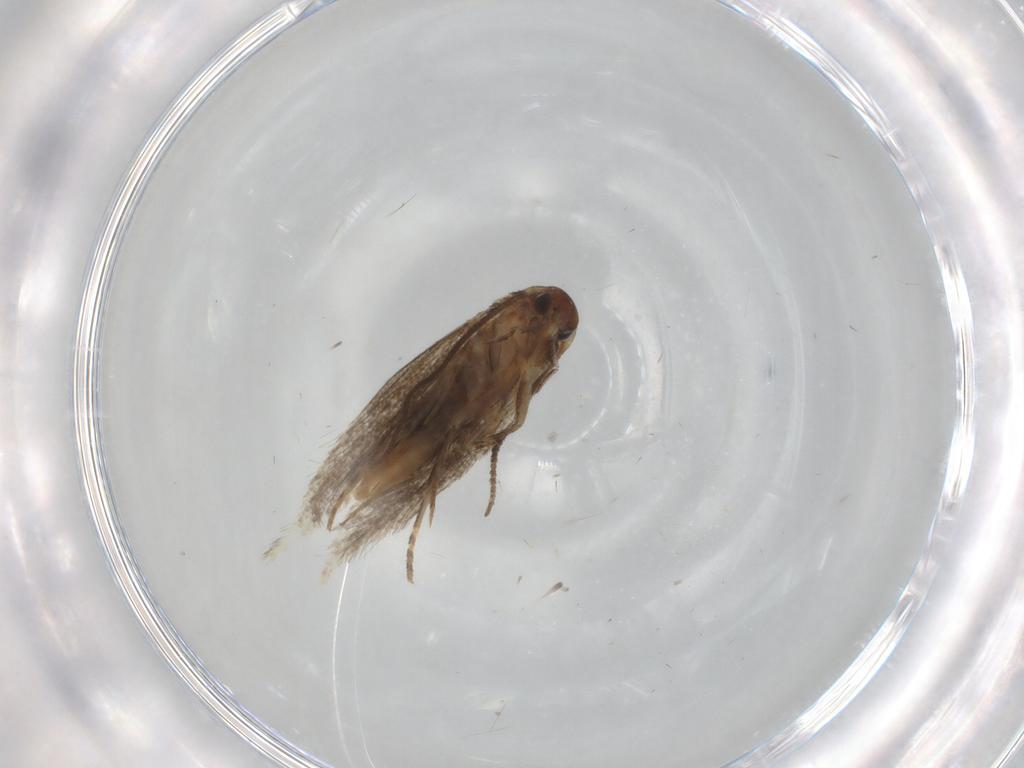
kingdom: Animalia
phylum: Arthropoda
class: Insecta
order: Lepidoptera
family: Elachistidae
